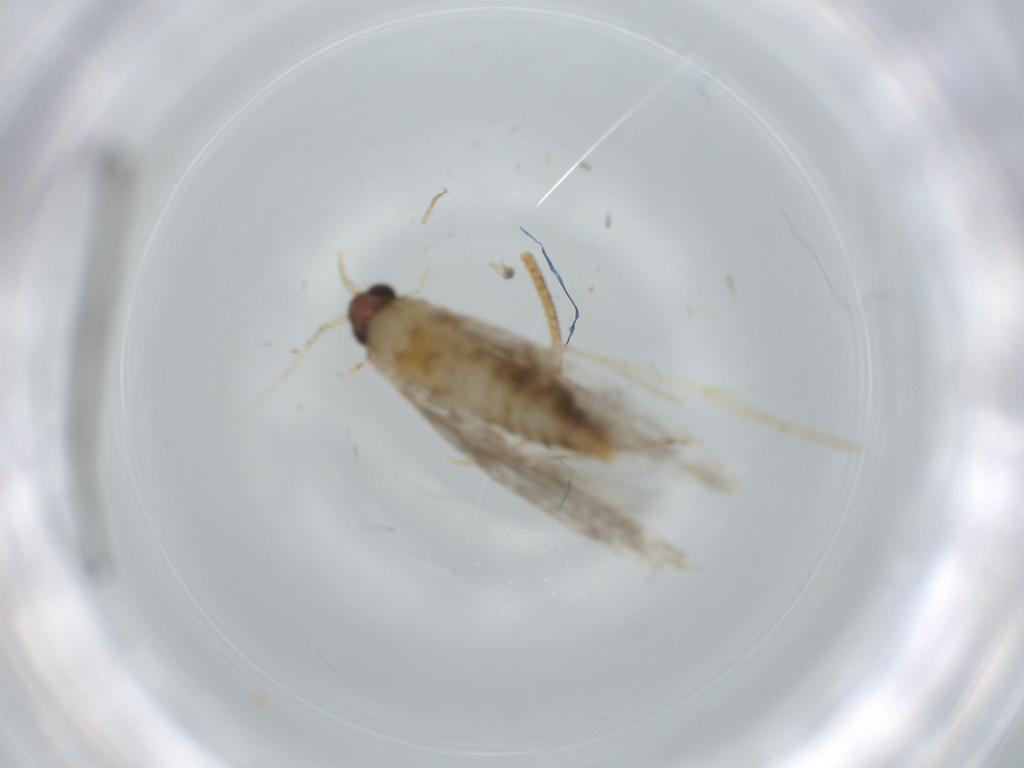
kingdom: Animalia
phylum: Arthropoda
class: Insecta
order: Lepidoptera
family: Tineidae
